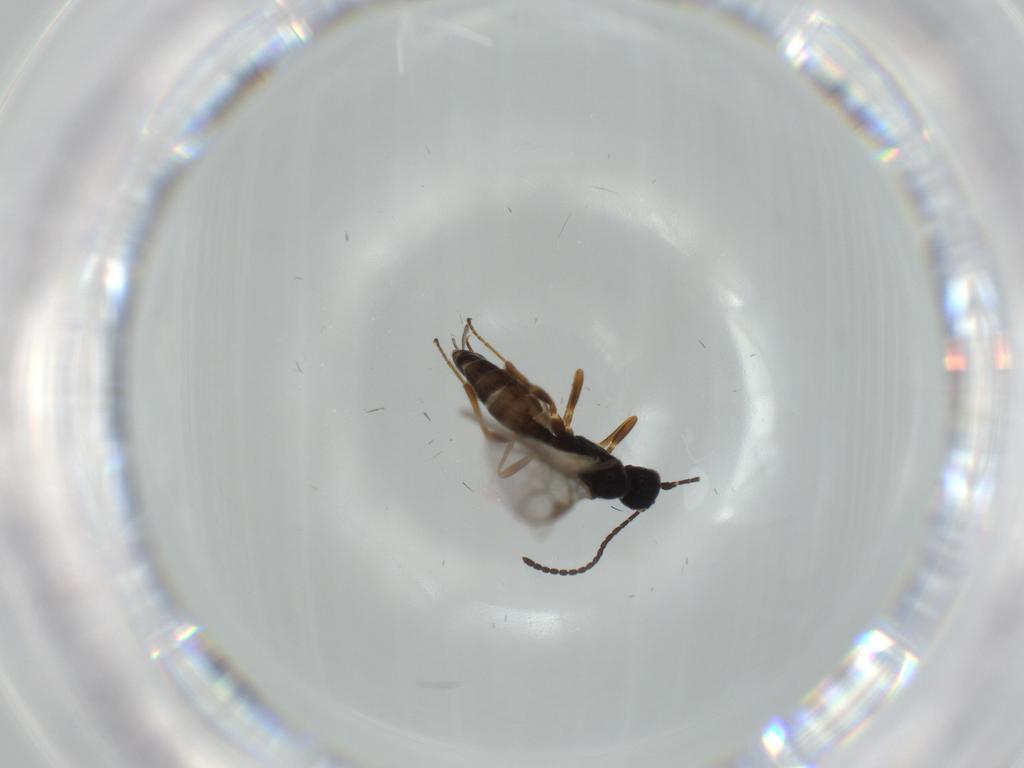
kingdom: Animalia
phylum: Arthropoda
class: Insecta
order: Hymenoptera
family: Braconidae
